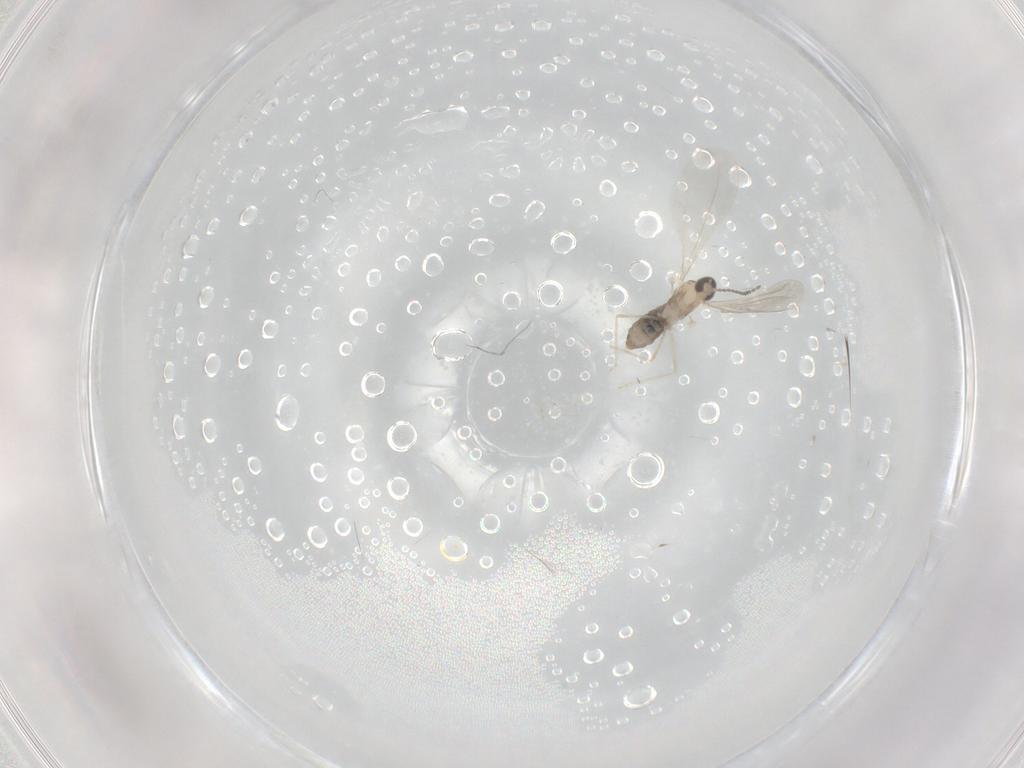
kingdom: Animalia
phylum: Arthropoda
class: Insecta
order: Diptera
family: Cecidomyiidae
